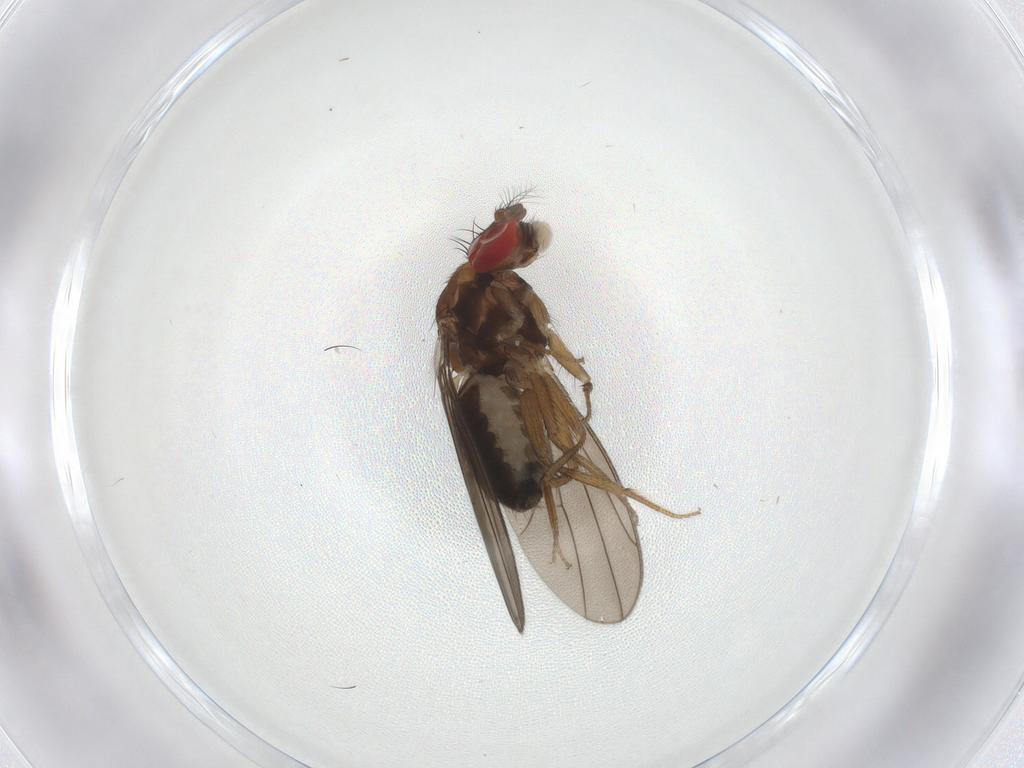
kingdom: Animalia
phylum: Arthropoda
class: Insecta
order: Diptera
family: Drosophilidae
